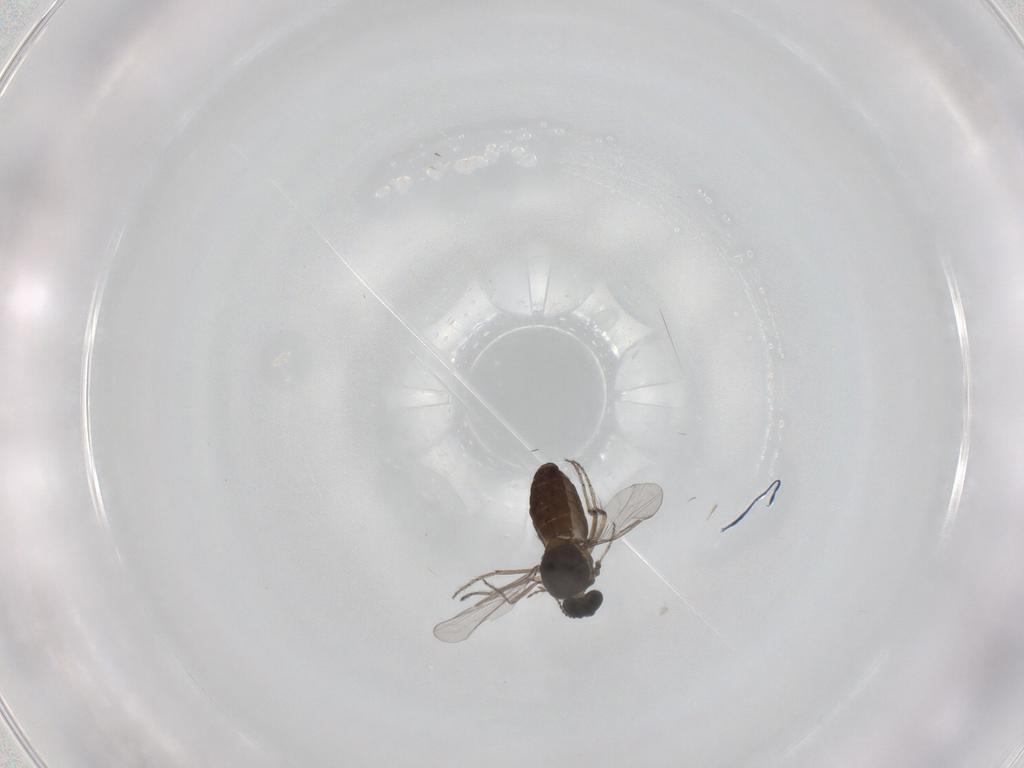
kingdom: Animalia
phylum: Arthropoda
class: Insecta
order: Diptera
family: Ceratopogonidae
